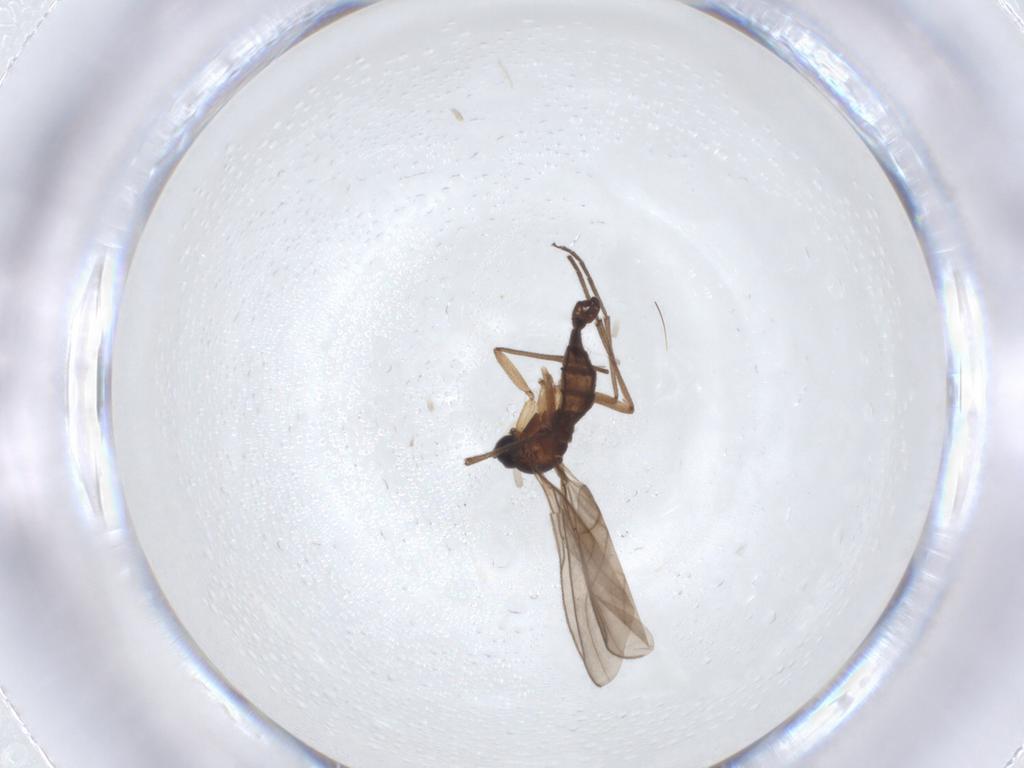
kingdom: Animalia
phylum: Arthropoda
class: Insecta
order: Diptera
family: Sciaridae
